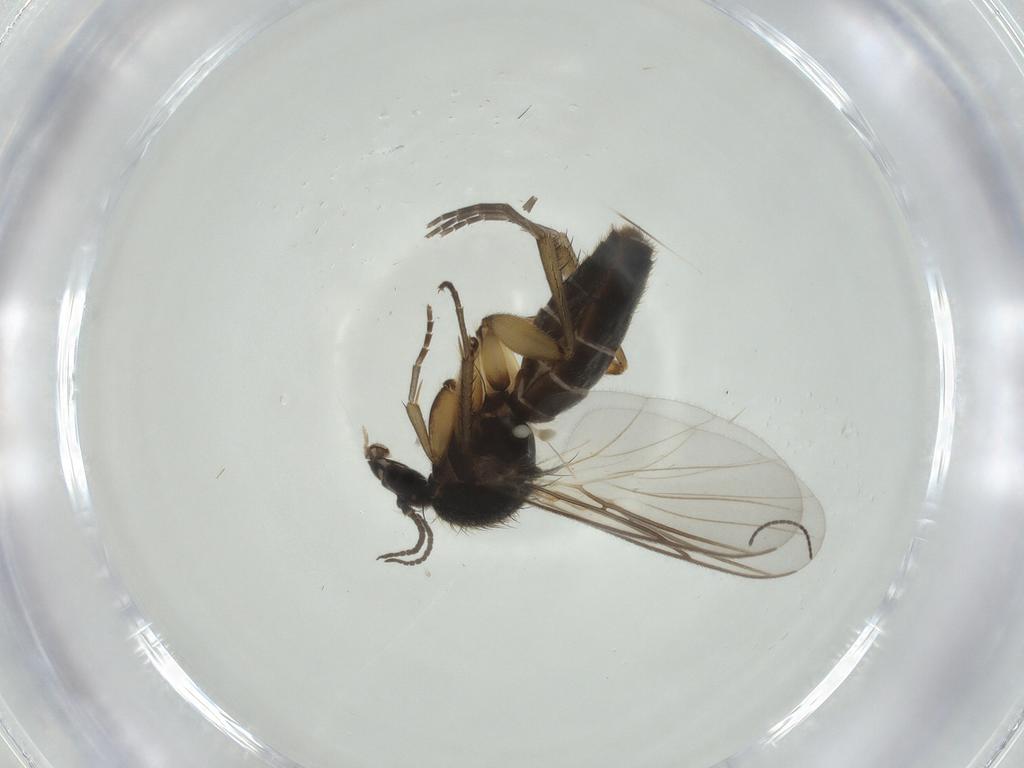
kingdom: Animalia
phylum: Arthropoda
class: Insecta
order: Diptera
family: Mycetophilidae
